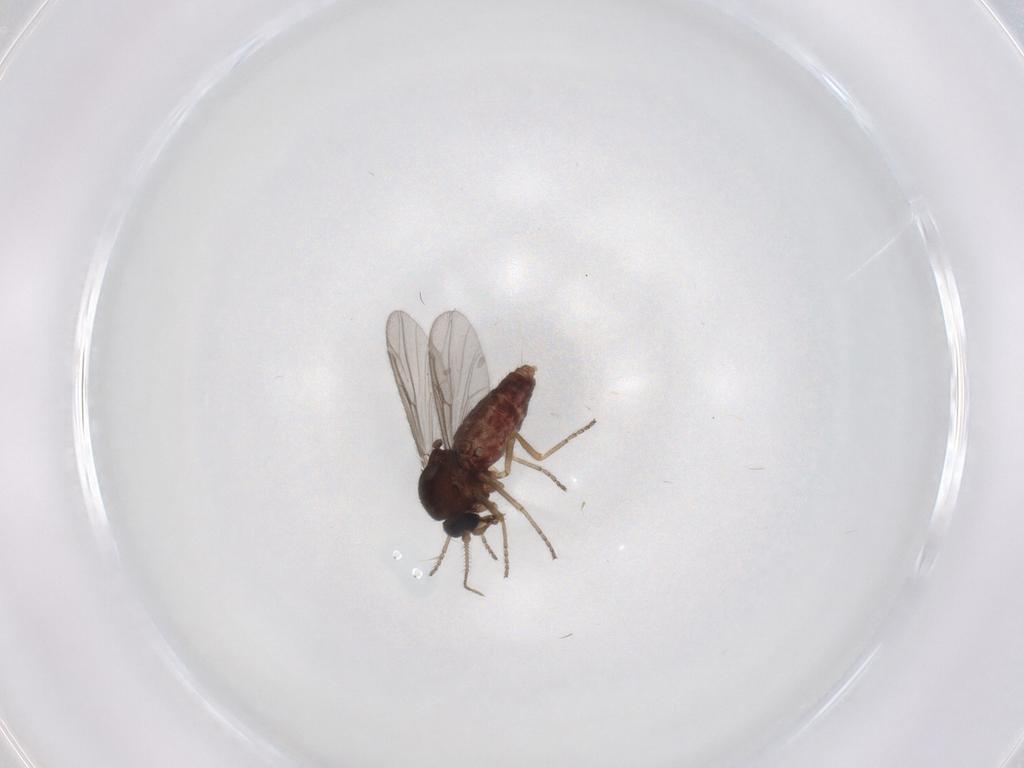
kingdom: Animalia
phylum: Arthropoda
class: Insecta
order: Diptera
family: Ceratopogonidae
